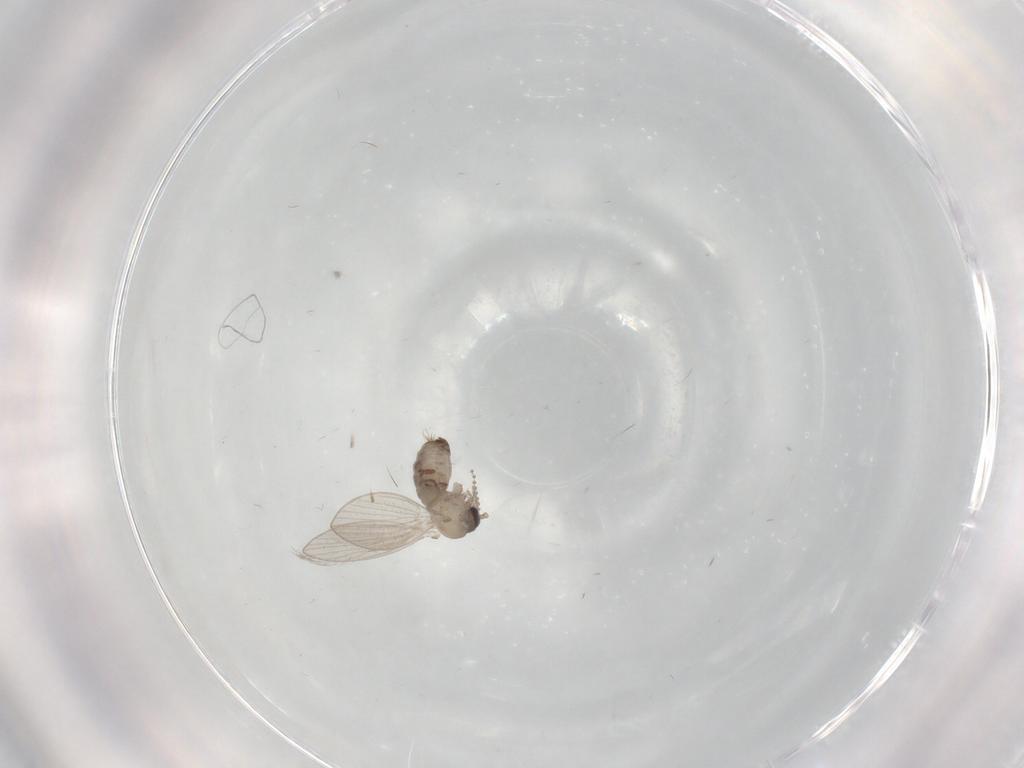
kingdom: Animalia
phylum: Arthropoda
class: Insecta
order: Diptera
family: Psychodidae
